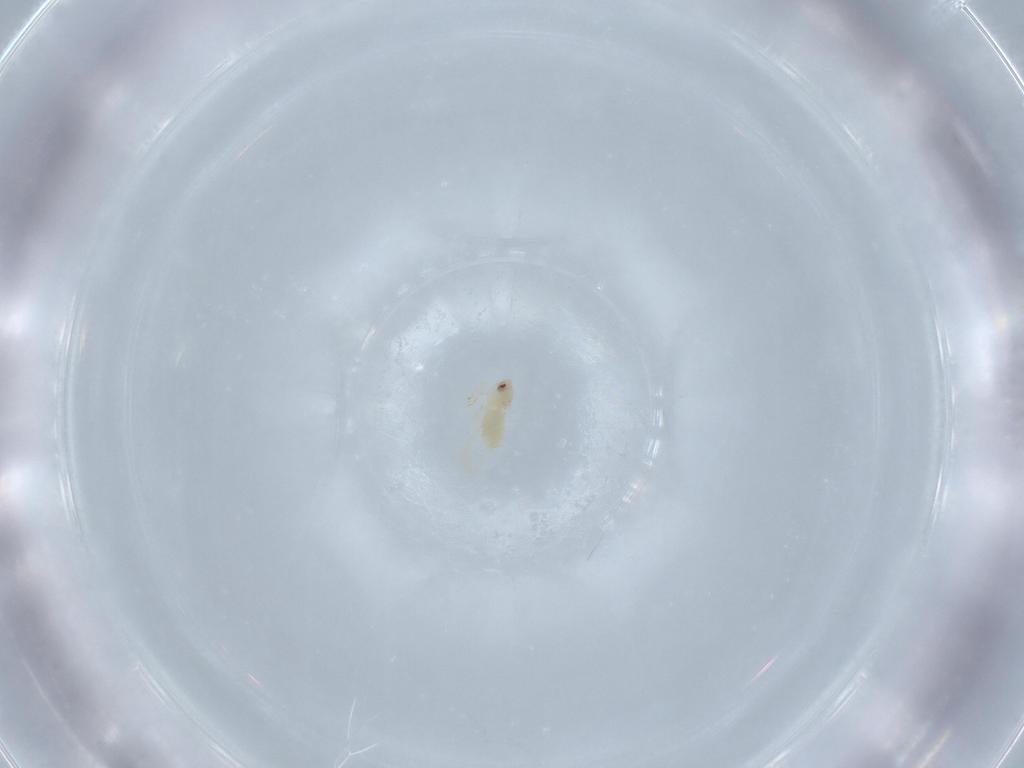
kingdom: Animalia
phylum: Arthropoda
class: Insecta
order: Hemiptera
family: Aleyrodidae
